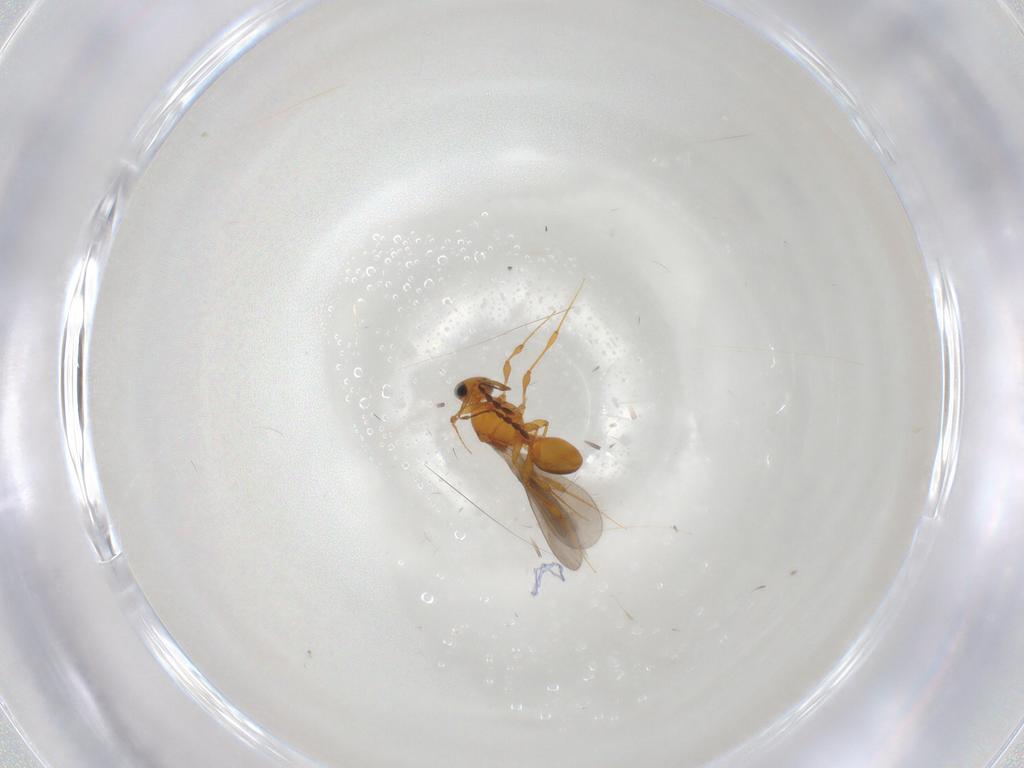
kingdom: Animalia
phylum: Arthropoda
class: Insecta
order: Hymenoptera
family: Platygastridae
